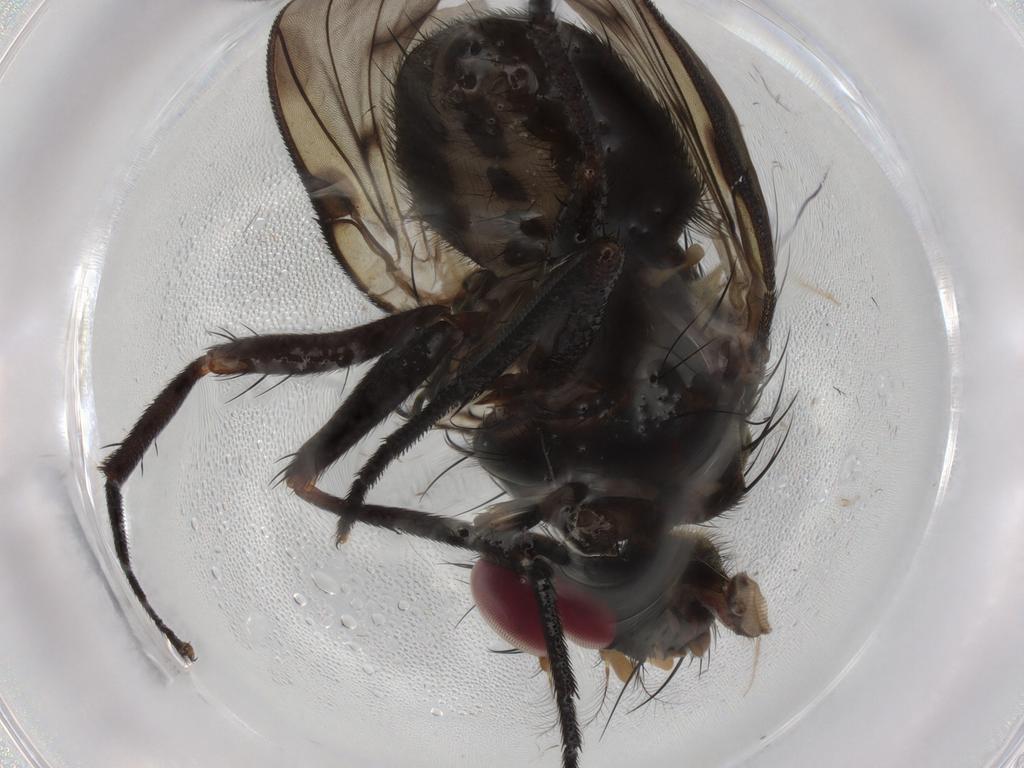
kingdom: Animalia
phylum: Arthropoda
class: Insecta
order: Diptera
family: Muscidae
